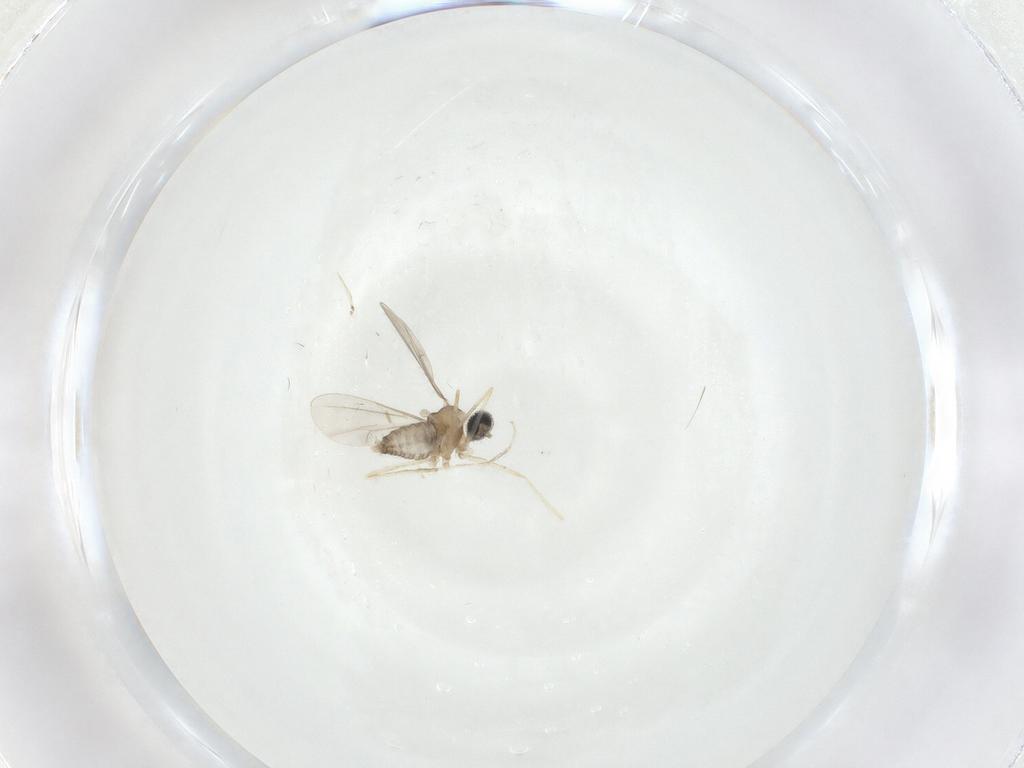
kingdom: Animalia
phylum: Arthropoda
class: Insecta
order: Diptera
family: Cecidomyiidae
